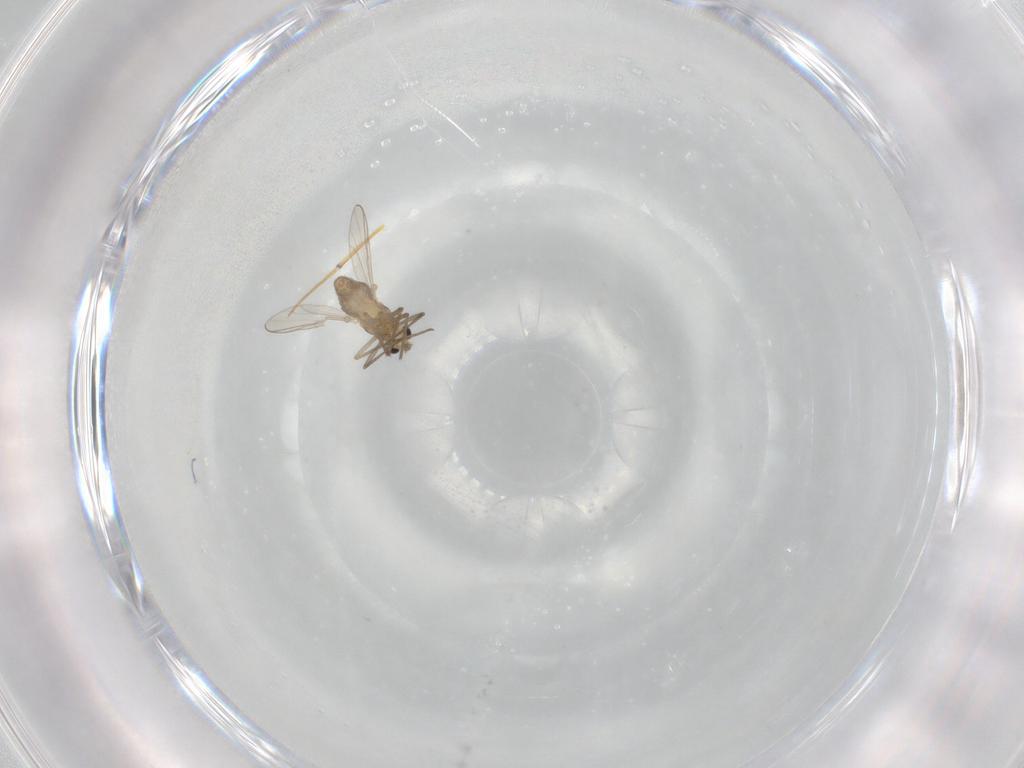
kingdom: Animalia
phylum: Arthropoda
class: Insecta
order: Diptera
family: Chironomidae
